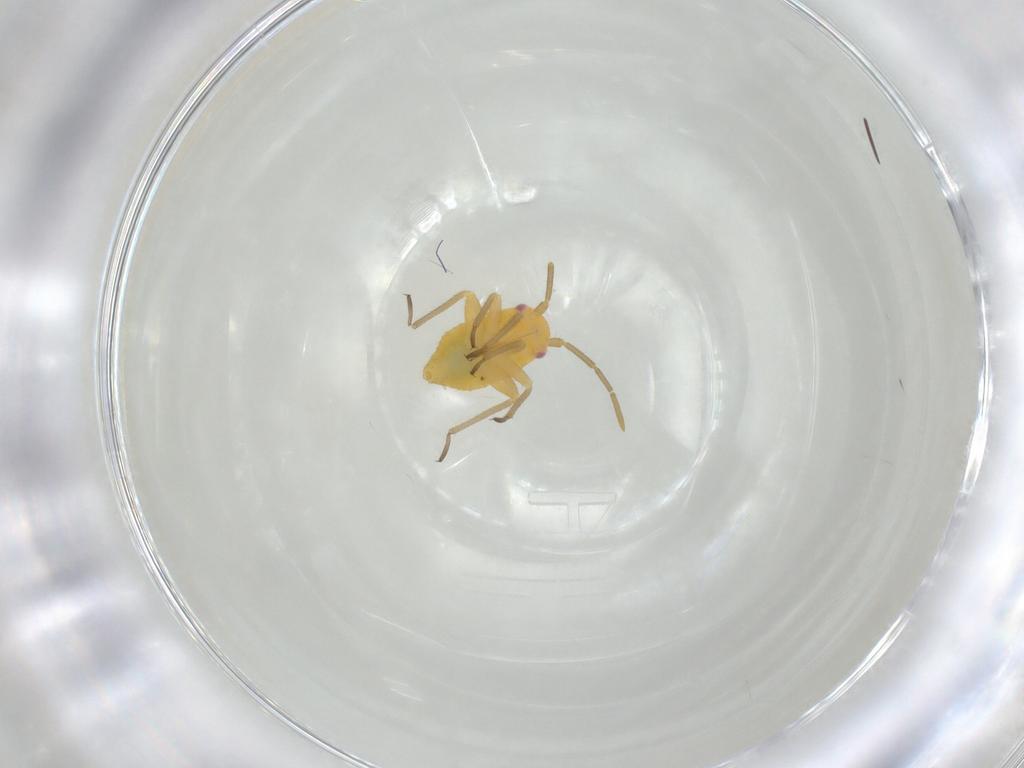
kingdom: Animalia
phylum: Arthropoda
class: Insecta
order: Hemiptera
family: Miridae
